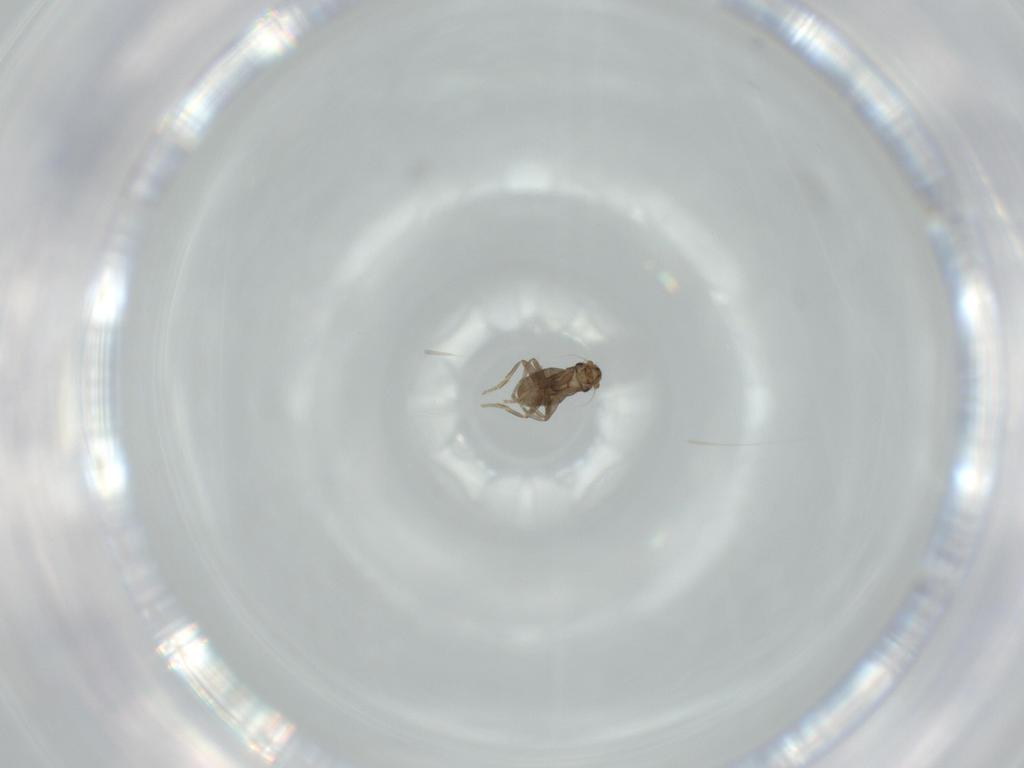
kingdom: Animalia
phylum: Arthropoda
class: Insecta
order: Diptera
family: Phoridae
